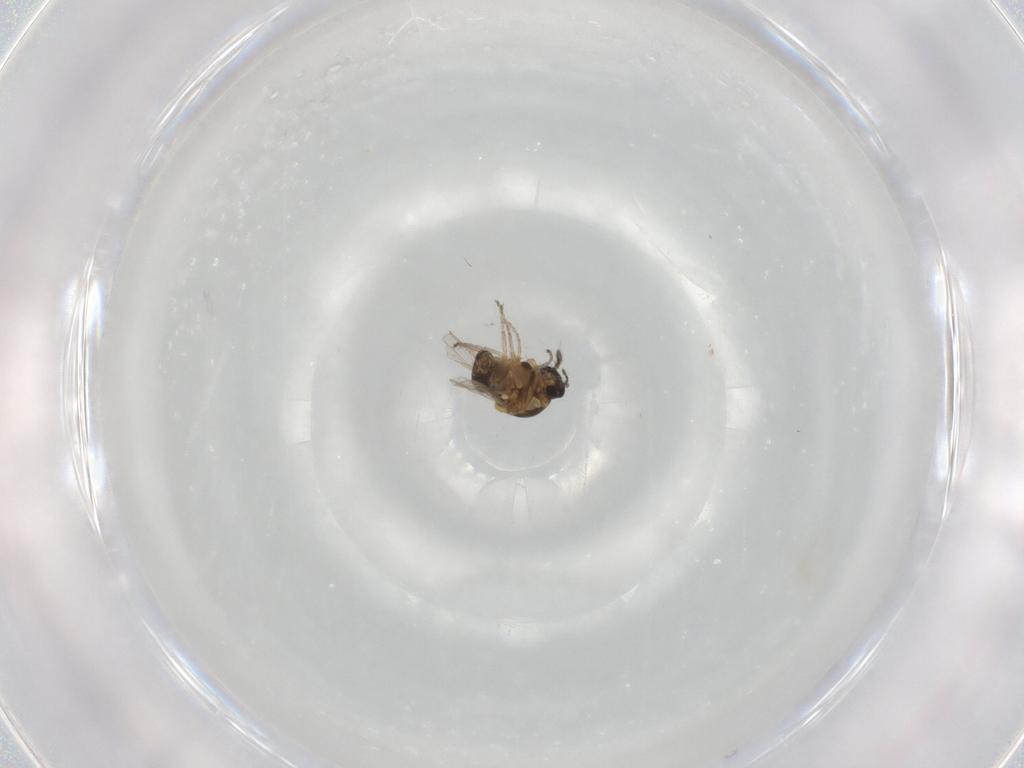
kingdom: Animalia
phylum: Arthropoda
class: Insecta
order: Diptera
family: Ceratopogonidae
